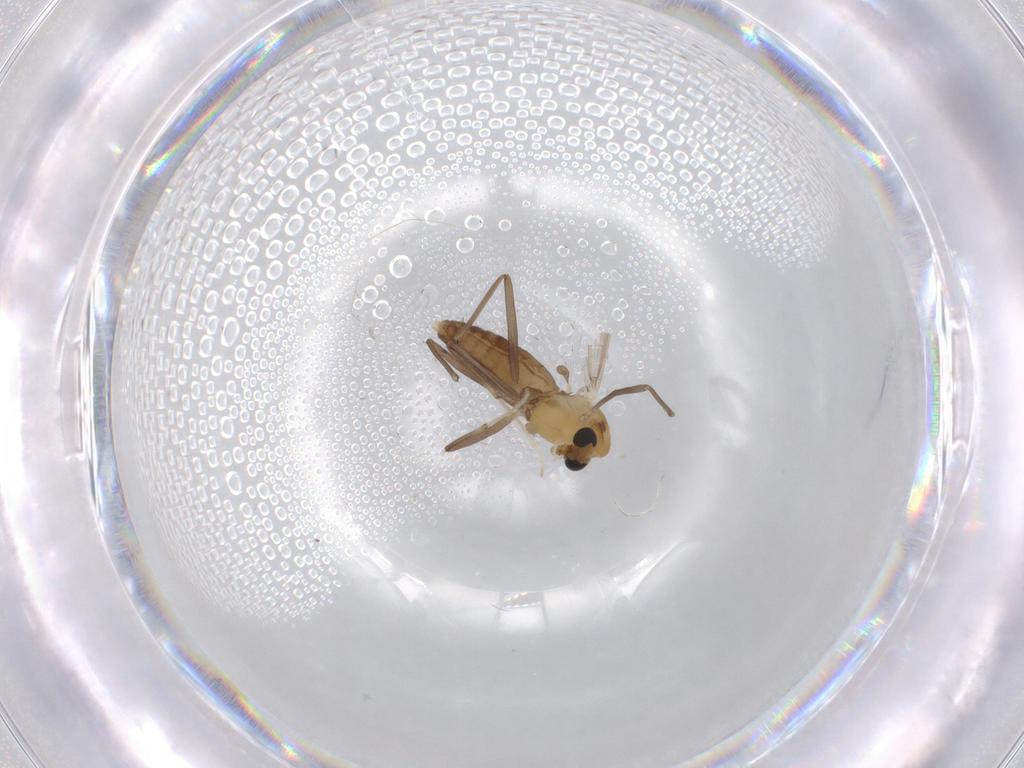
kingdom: Animalia
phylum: Arthropoda
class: Insecta
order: Diptera
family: Chironomidae
